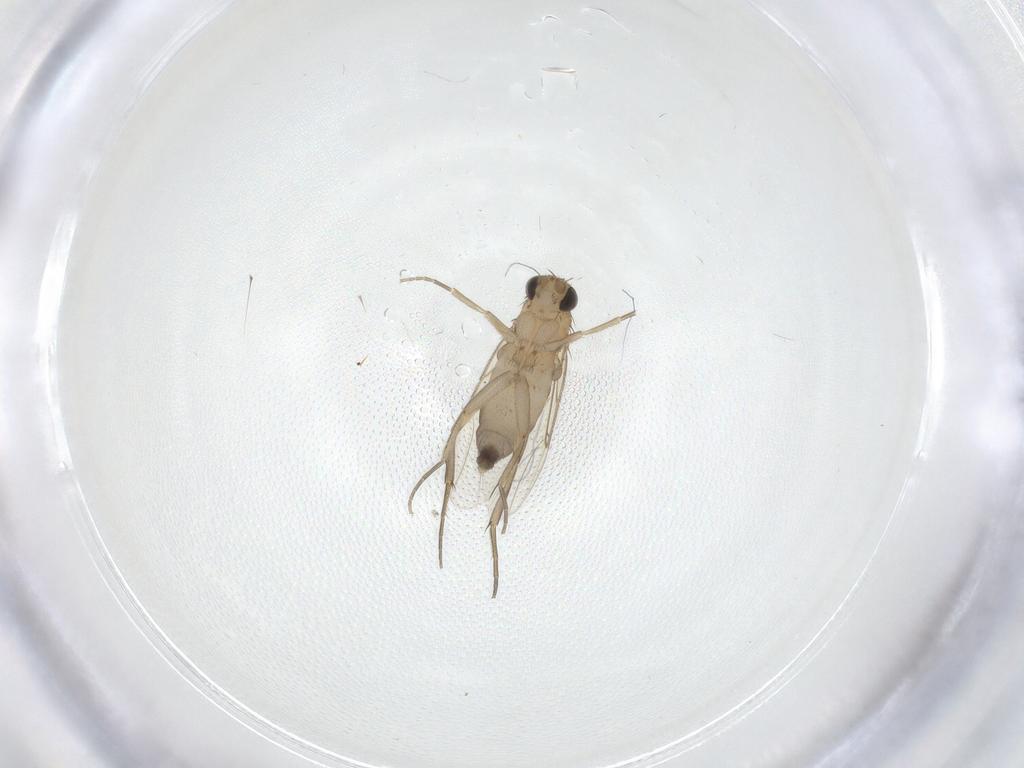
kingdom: Animalia
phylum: Arthropoda
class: Insecta
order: Diptera
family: Phoridae
